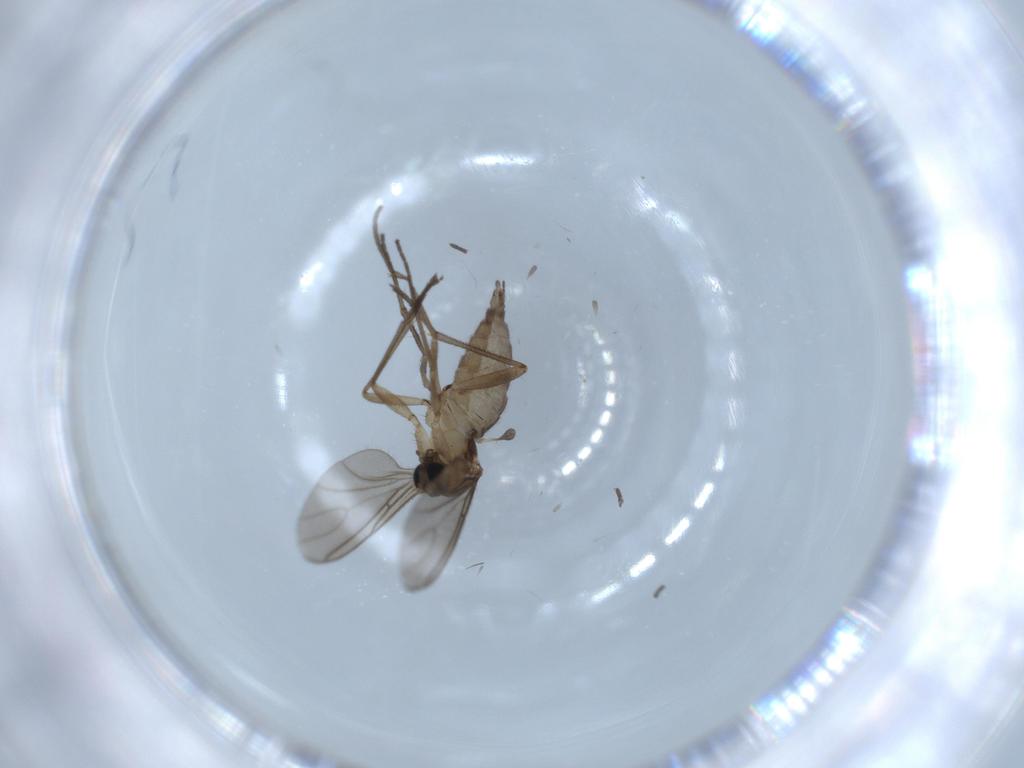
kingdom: Animalia
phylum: Arthropoda
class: Insecta
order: Diptera
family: Sciaridae
